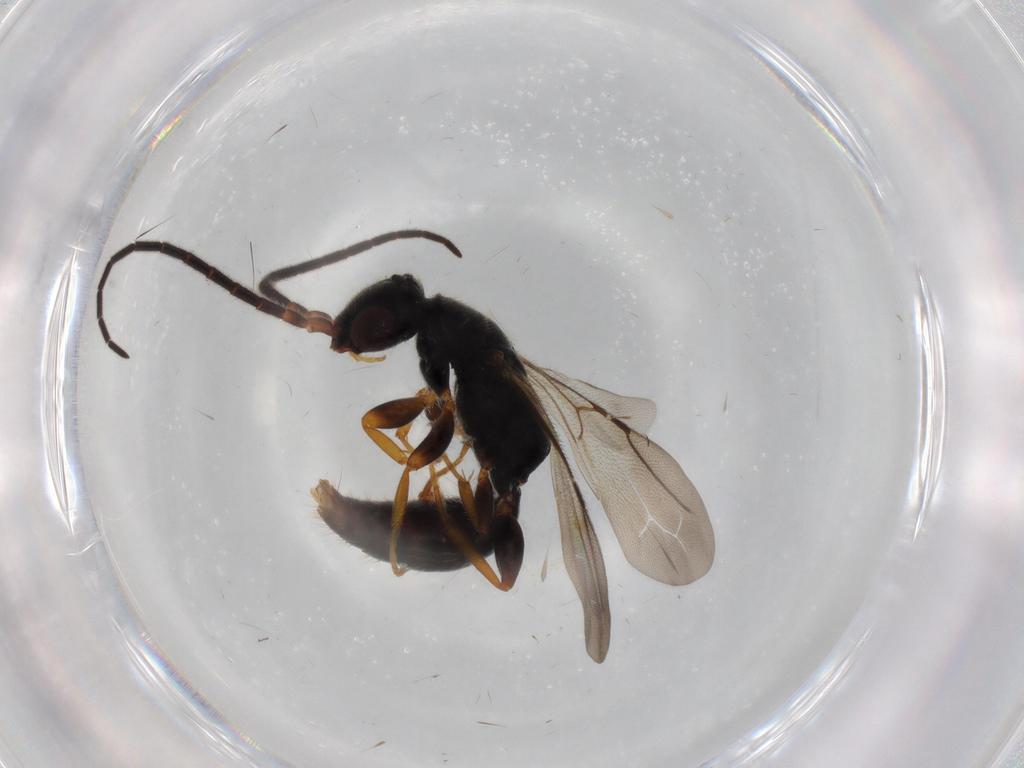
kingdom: Animalia
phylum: Arthropoda
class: Insecta
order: Hymenoptera
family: Bethylidae
